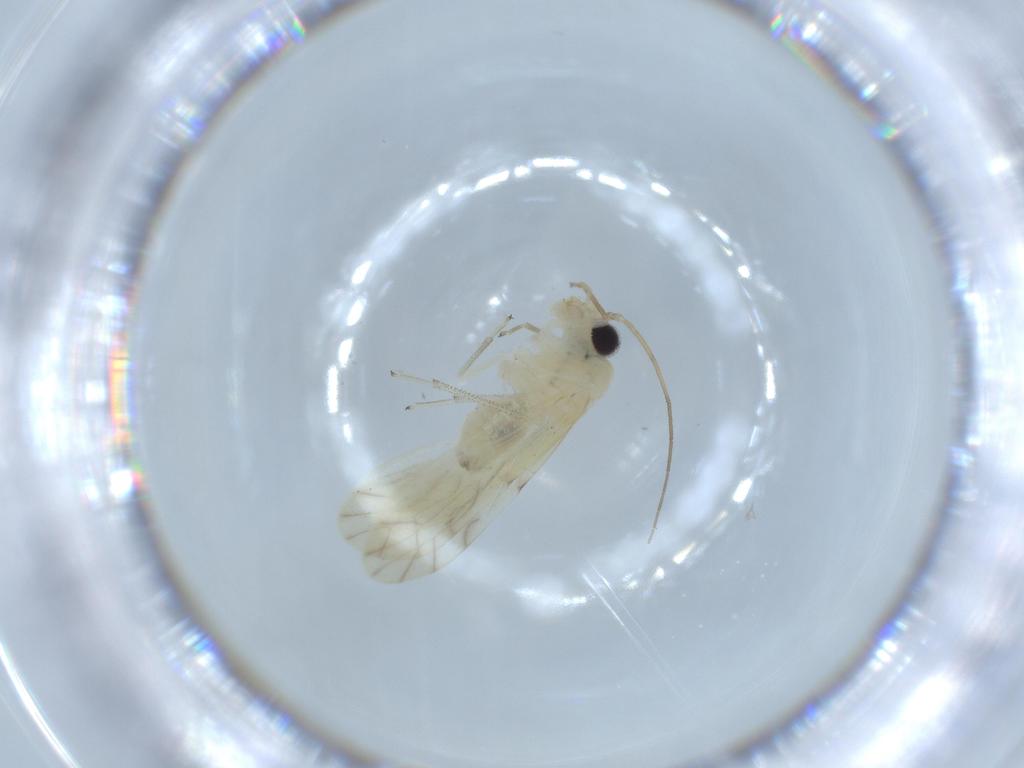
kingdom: Animalia
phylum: Arthropoda
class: Insecta
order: Psocodea
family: Caeciliusidae
